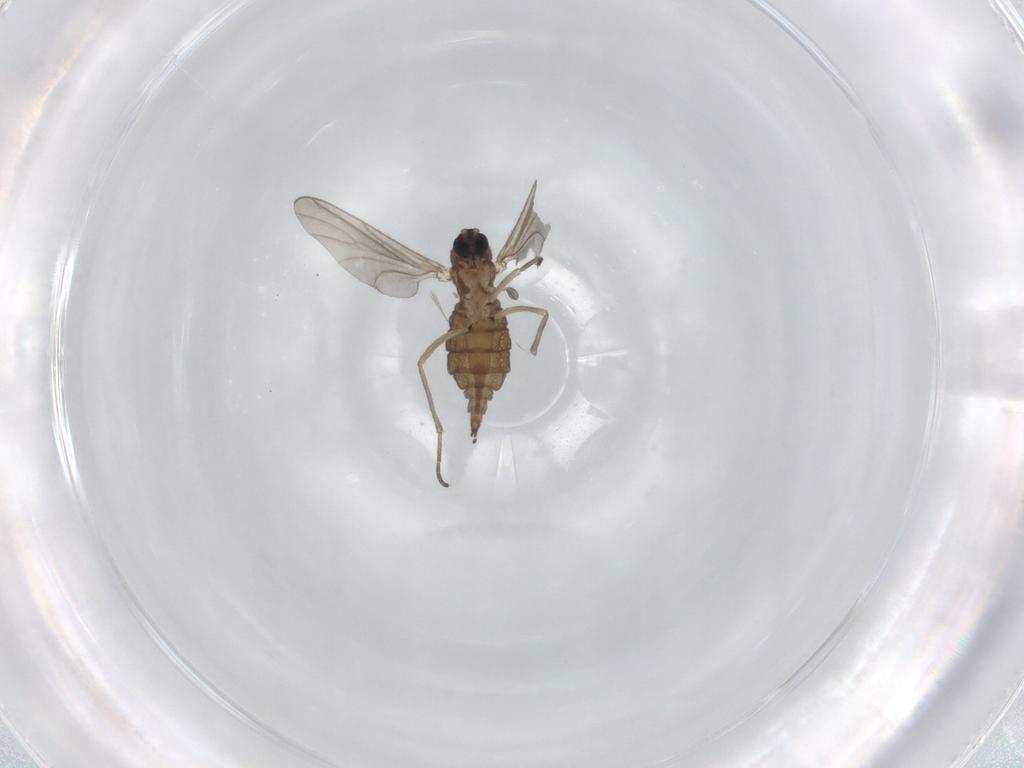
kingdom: Animalia
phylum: Arthropoda
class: Insecta
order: Diptera
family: Sciaridae
